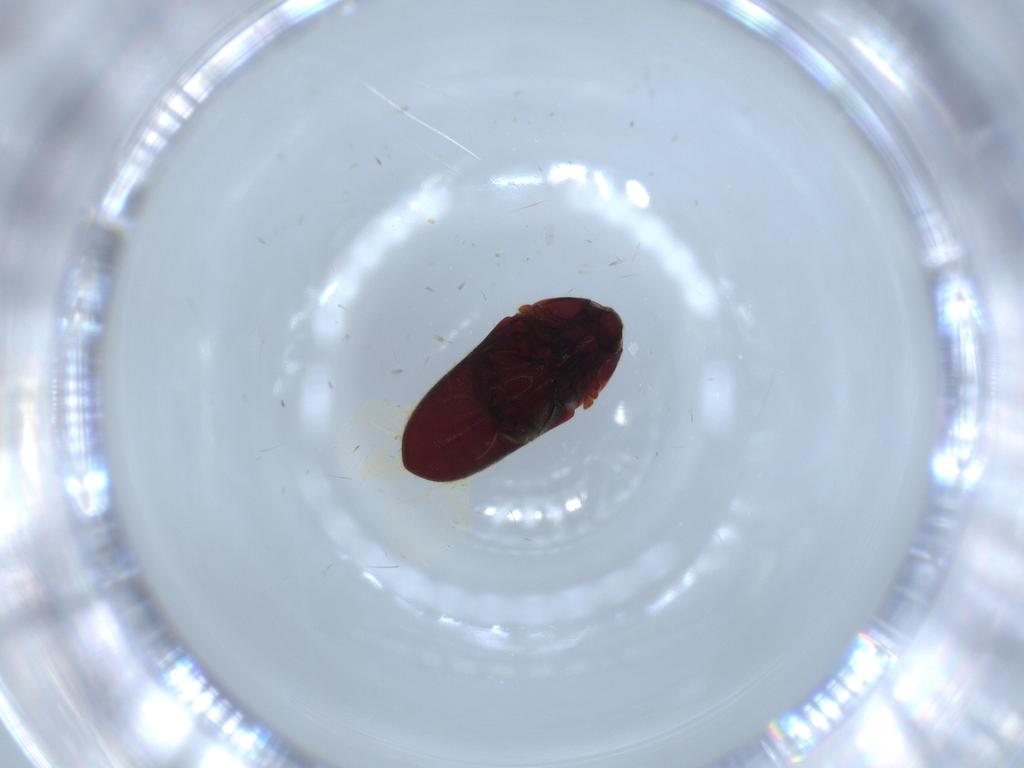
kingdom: Animalia
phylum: Arthropoda
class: Insecta
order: Coleoptera
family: Throscidae
